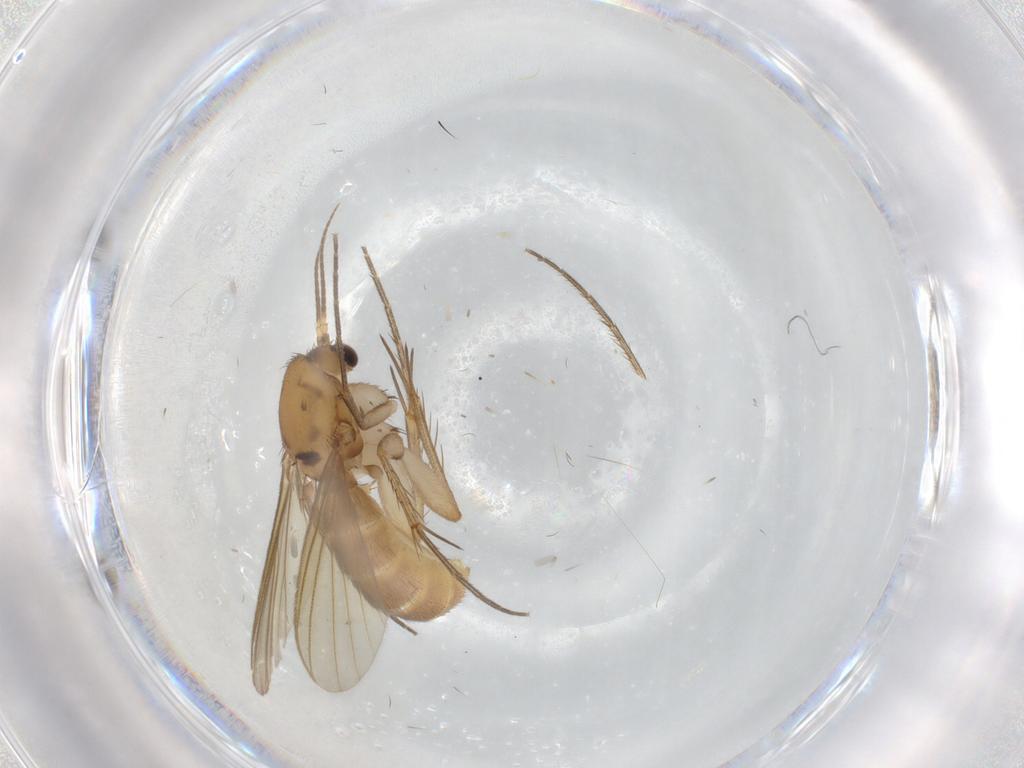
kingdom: Animalia
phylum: Arthropoda
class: Insecta
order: Diptera
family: Mycetophilidae
